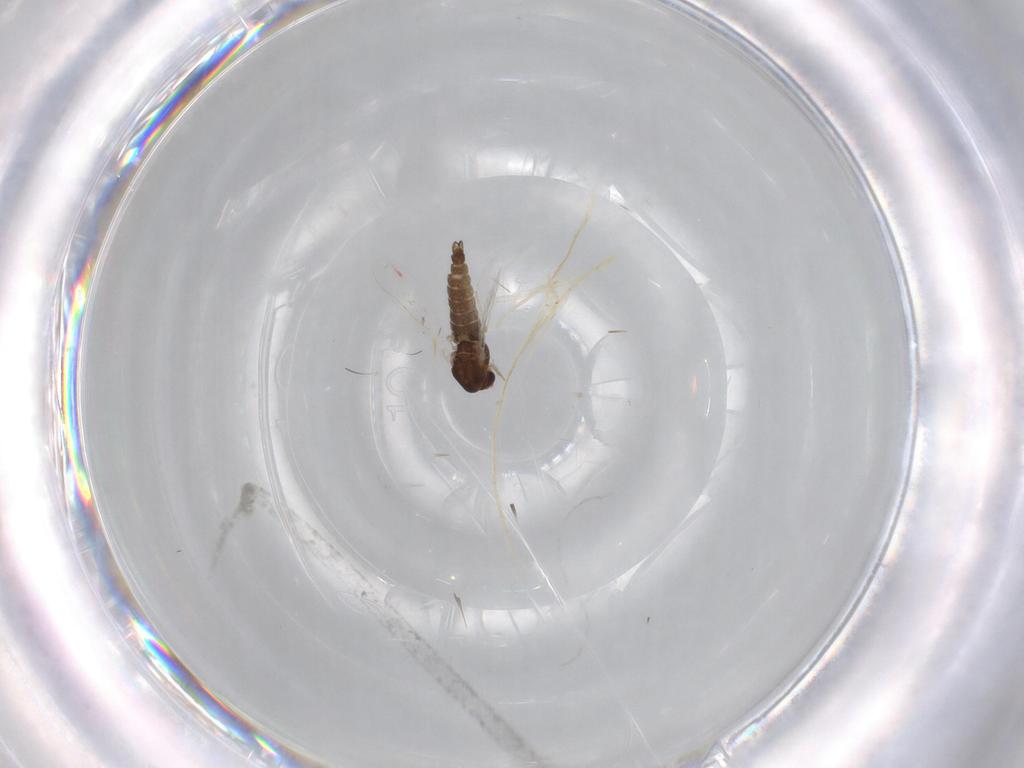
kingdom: Animalia
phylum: Arthropoda
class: Insecta
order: Diptera
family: Chironomidae
